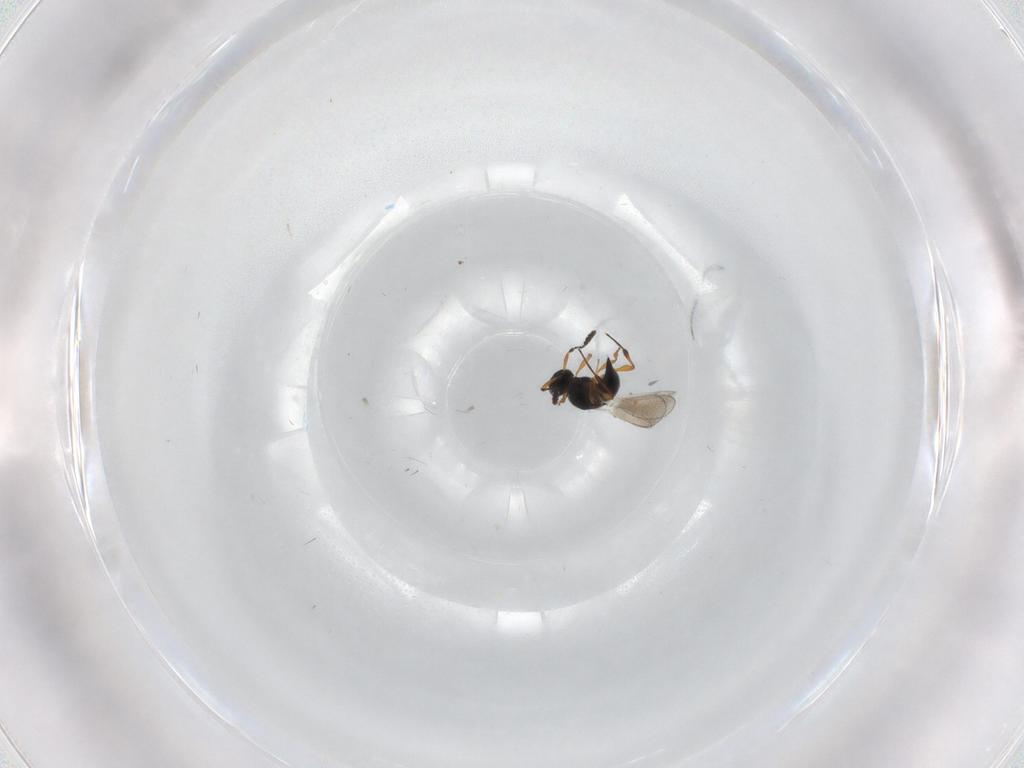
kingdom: Animalia
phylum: Arthropoda
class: Insecta
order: Hymenoptera
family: Platygastridae
